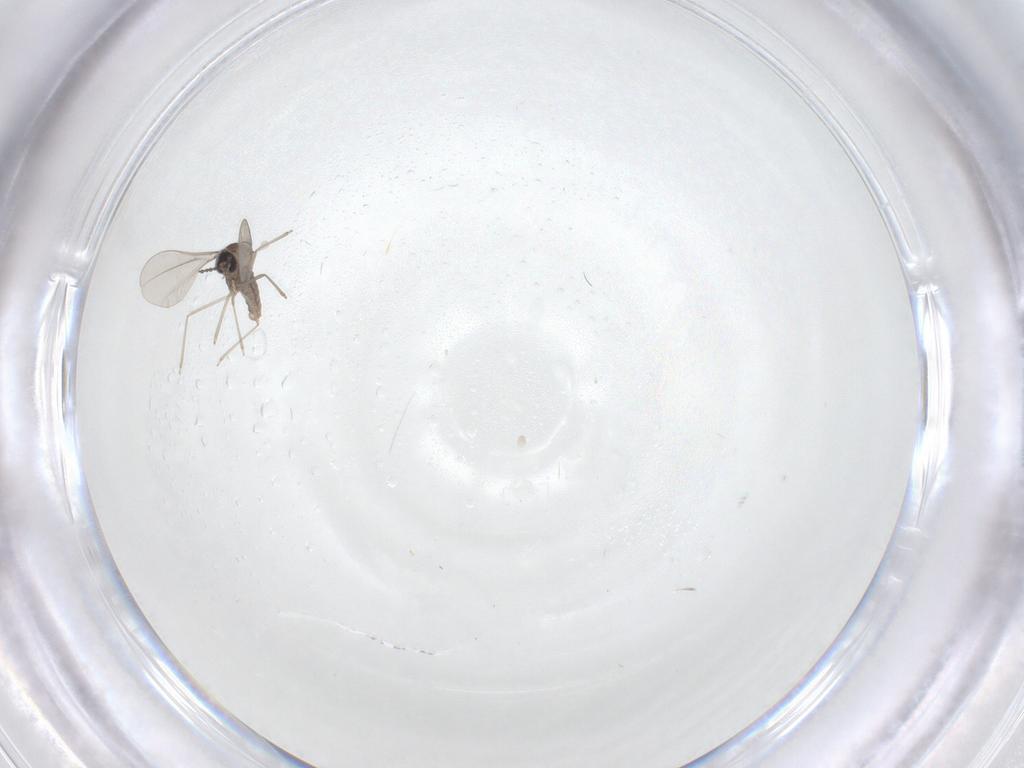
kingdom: Animalia
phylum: Arthropoda
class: Insecta
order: Diptera
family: Cecidomyiidae
